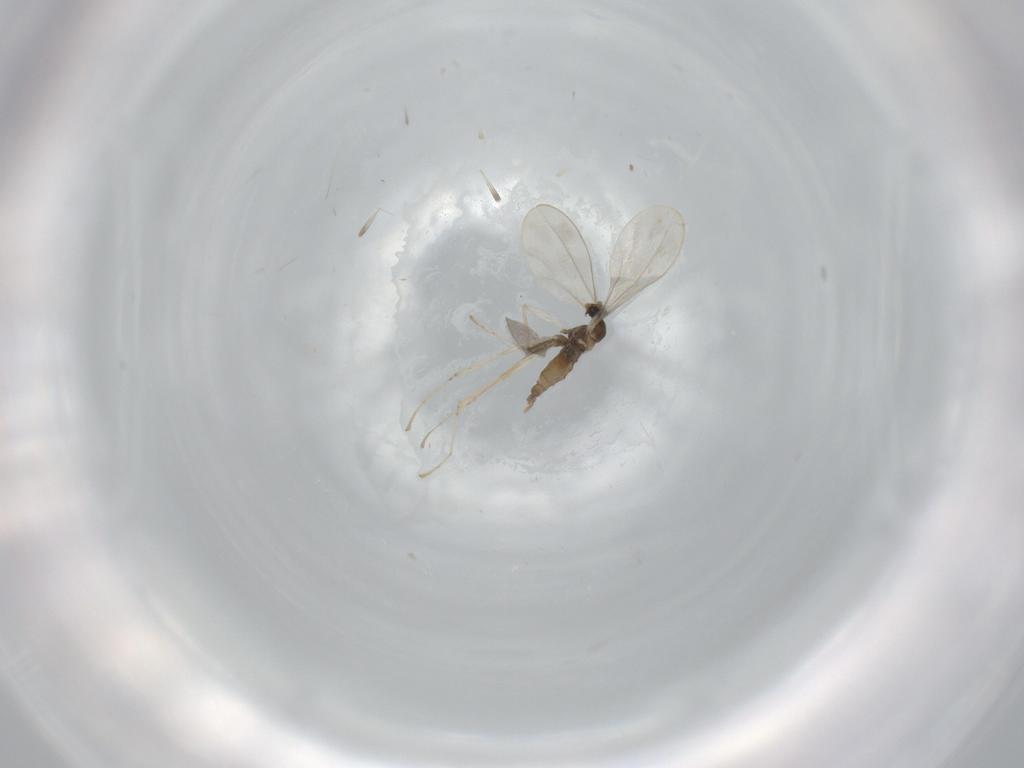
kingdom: Animalia
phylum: Arthropoda
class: Insecta
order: Diptera
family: Cecidomyiidae
